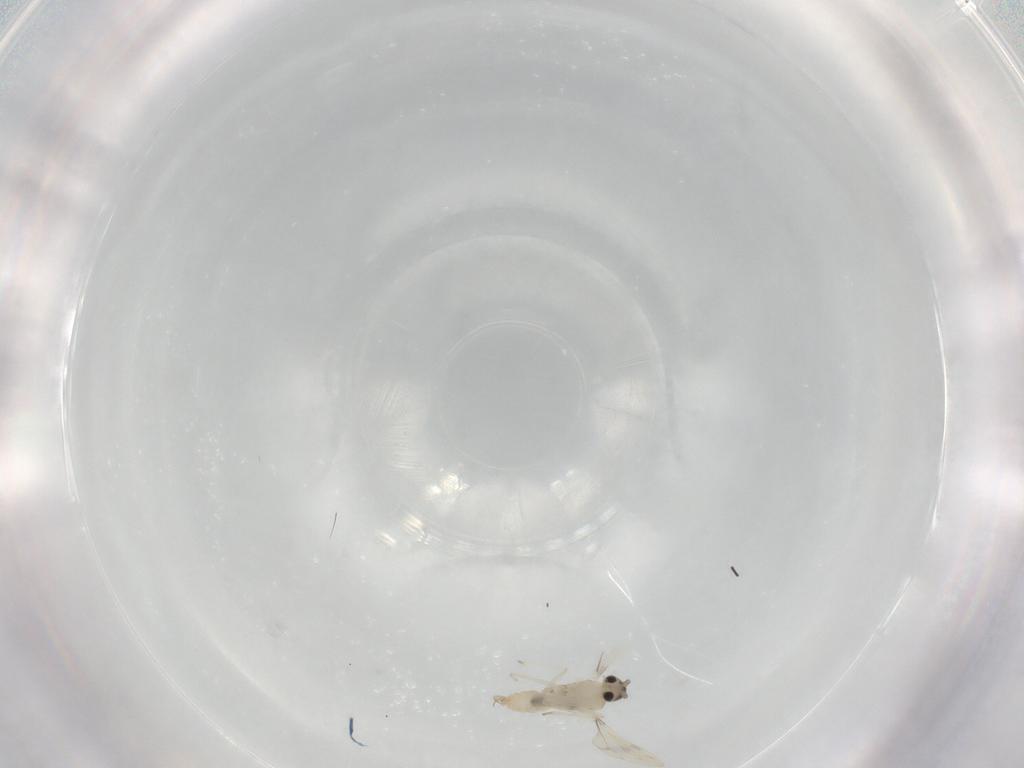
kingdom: Animalia
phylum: Arthropoda
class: Insecta
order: Diptera
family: Cecidomyiidae
